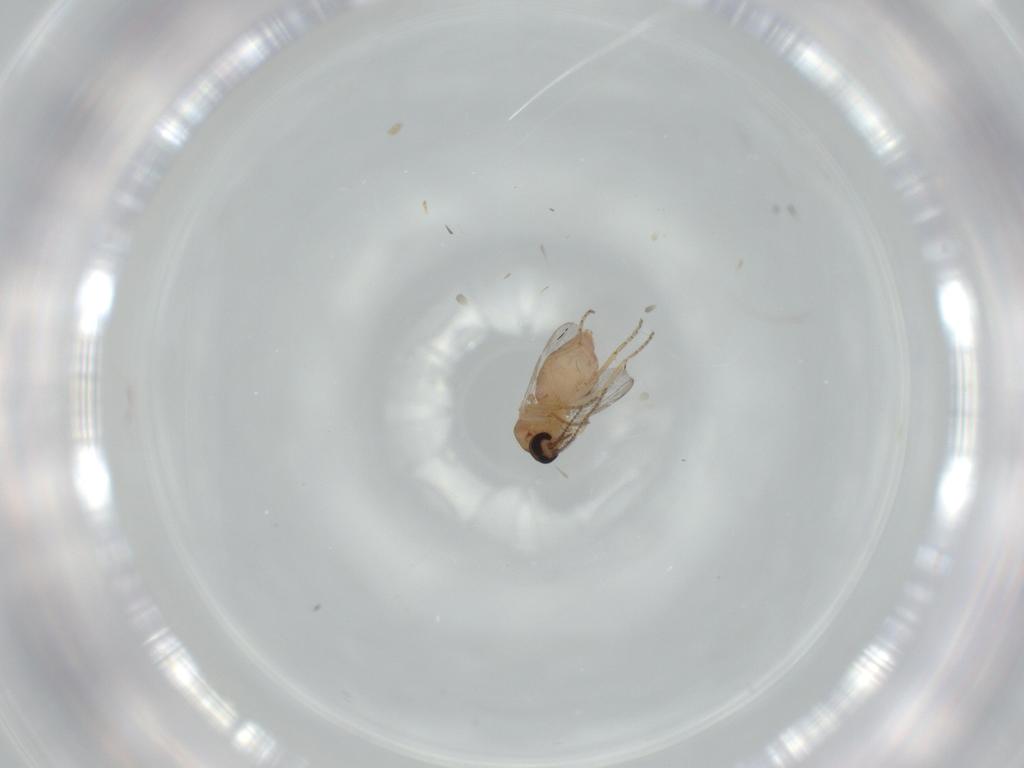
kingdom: Animalia
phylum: Arthropoda
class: Insecta
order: Diptera
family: Ceratopogonidae
